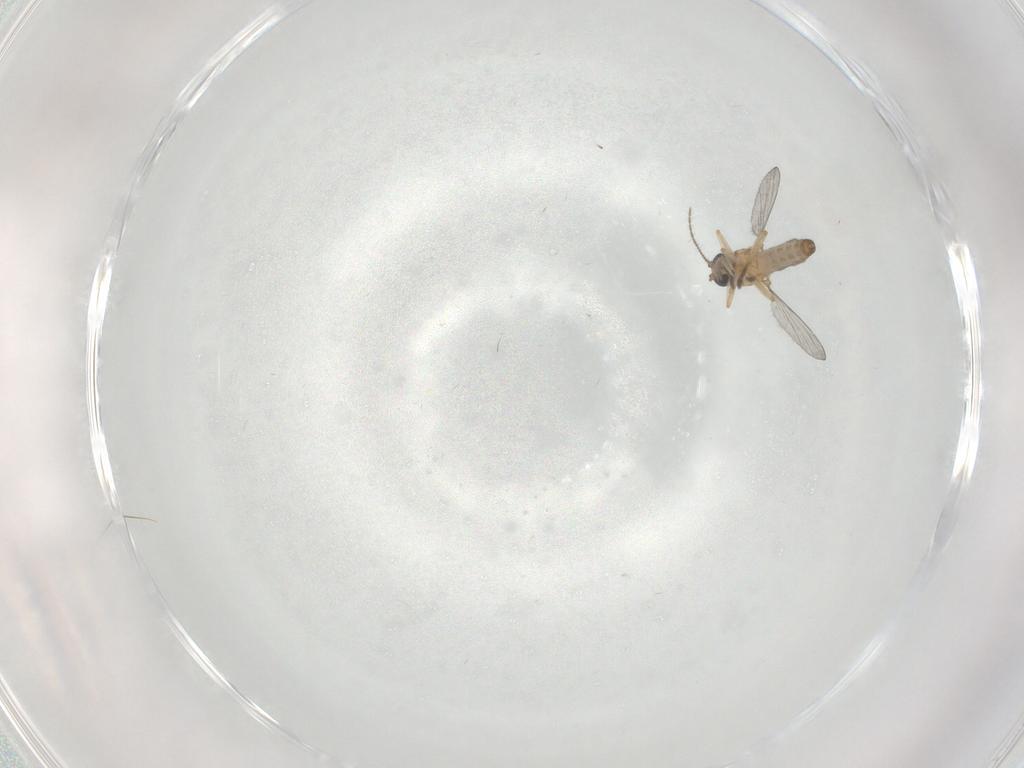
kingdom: Animalia
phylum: Arthropoda
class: Insecta
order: Diptera
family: Ceratopogonidae
